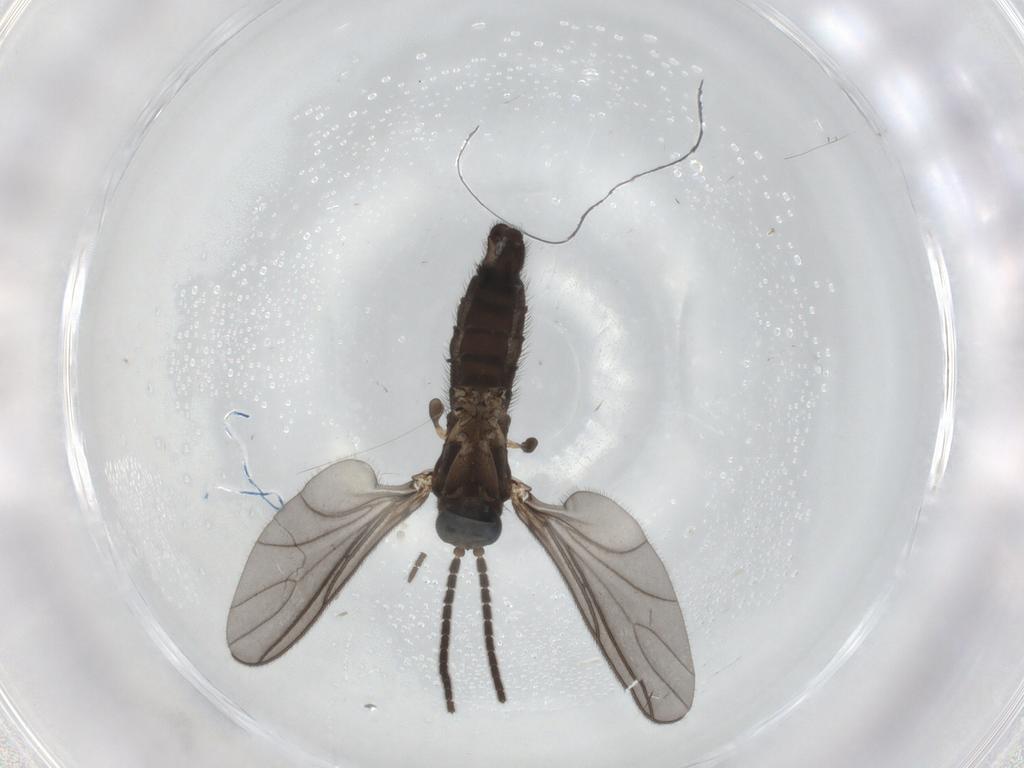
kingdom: Animalia
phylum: Arthropoda
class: Insecta
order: Diptera
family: Sciaridae
